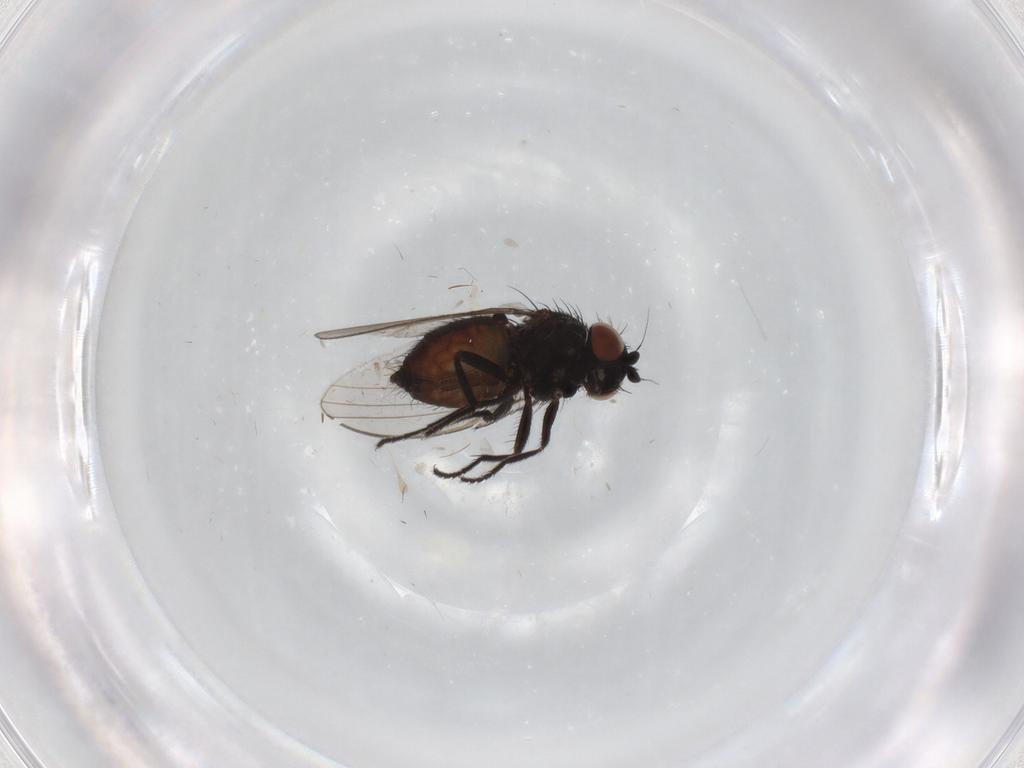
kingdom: Animalia
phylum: Arthropoda
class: Insecta
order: Diptera
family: Milichiidae
